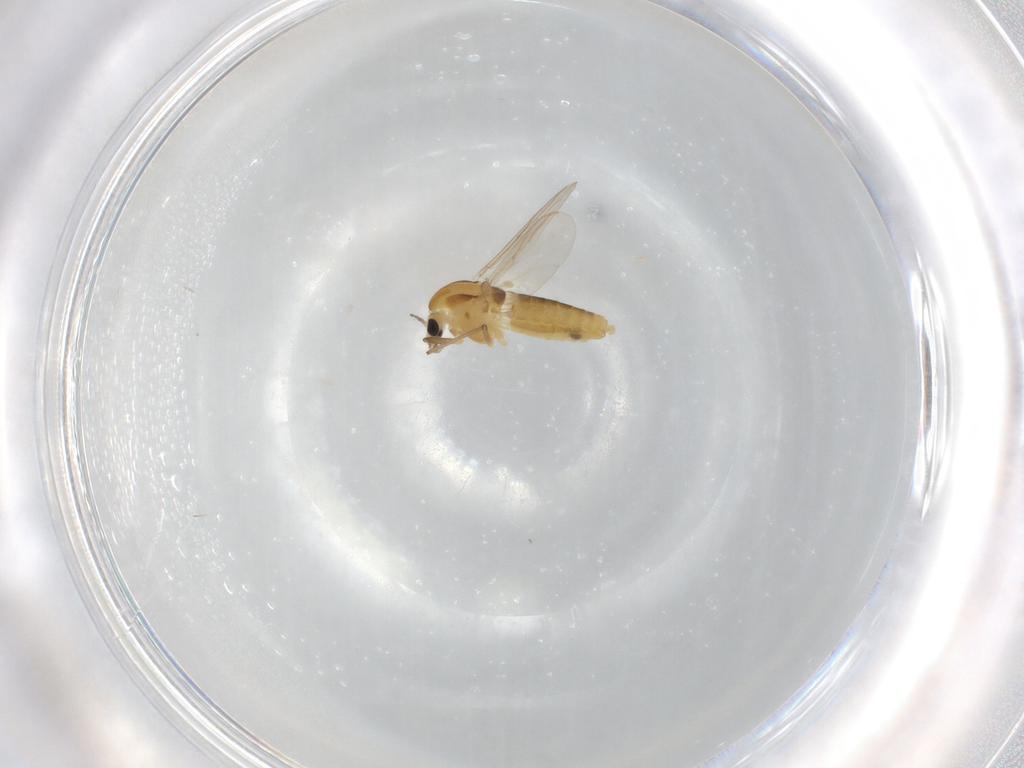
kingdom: Animalia
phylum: Arthropoda
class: Insecta
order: Diptera
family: Chironomidae
